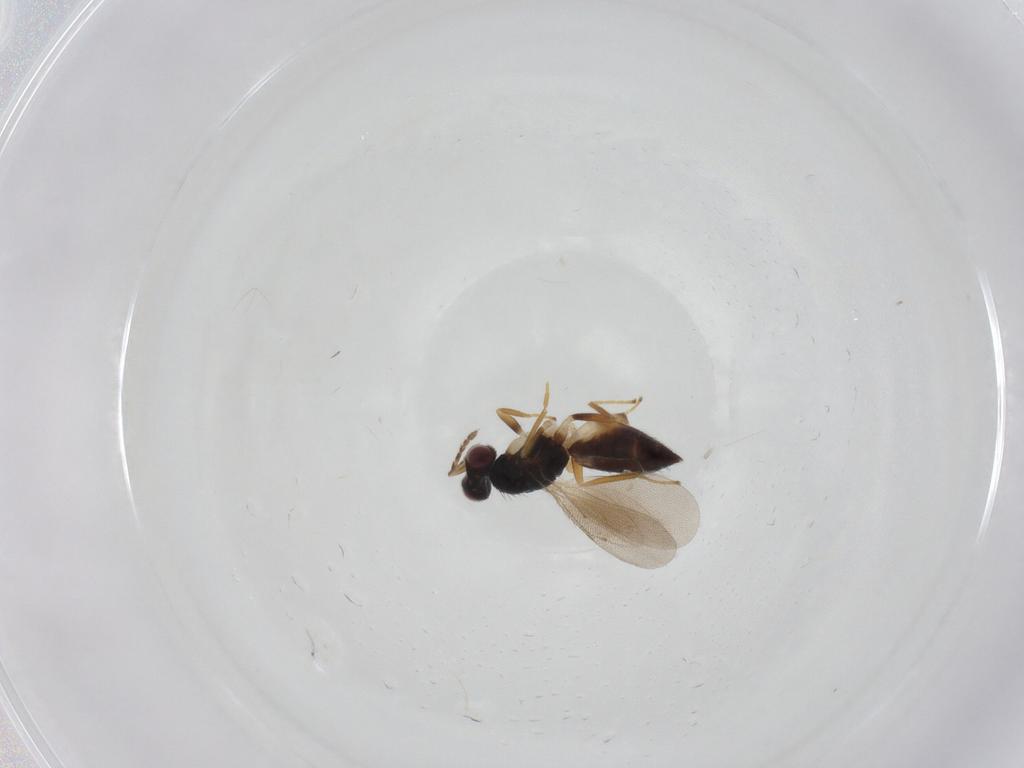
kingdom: Animalia
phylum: Arthropoda
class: Insecta
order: Hymenoptera
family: Eulophidae
